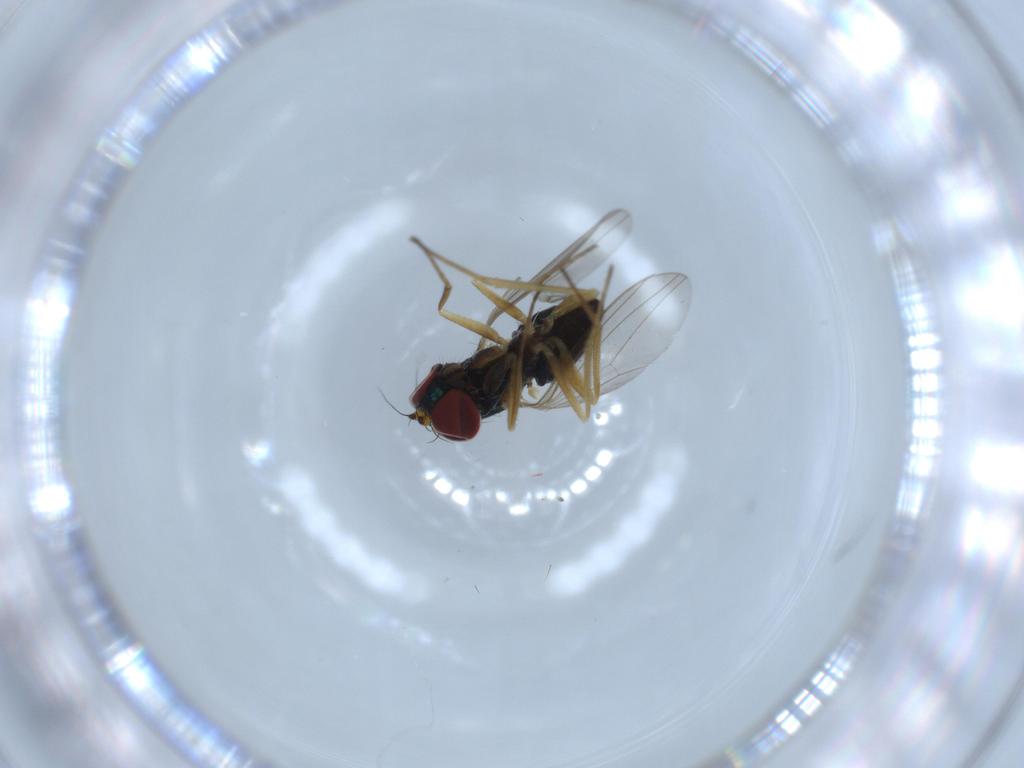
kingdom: Animalia
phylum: Arthropoda
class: Insecta
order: Diptera
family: Dolichopodidae
